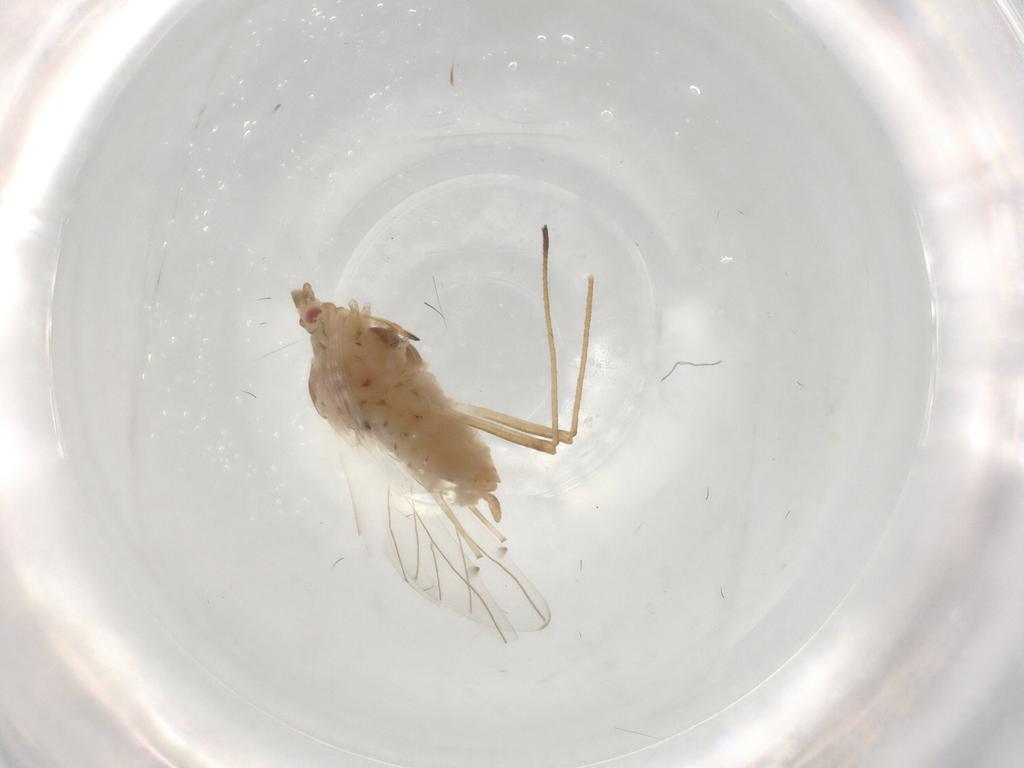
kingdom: Animalia
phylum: Arthropoda
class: Insecta
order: Hemiptera
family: Aphididae
